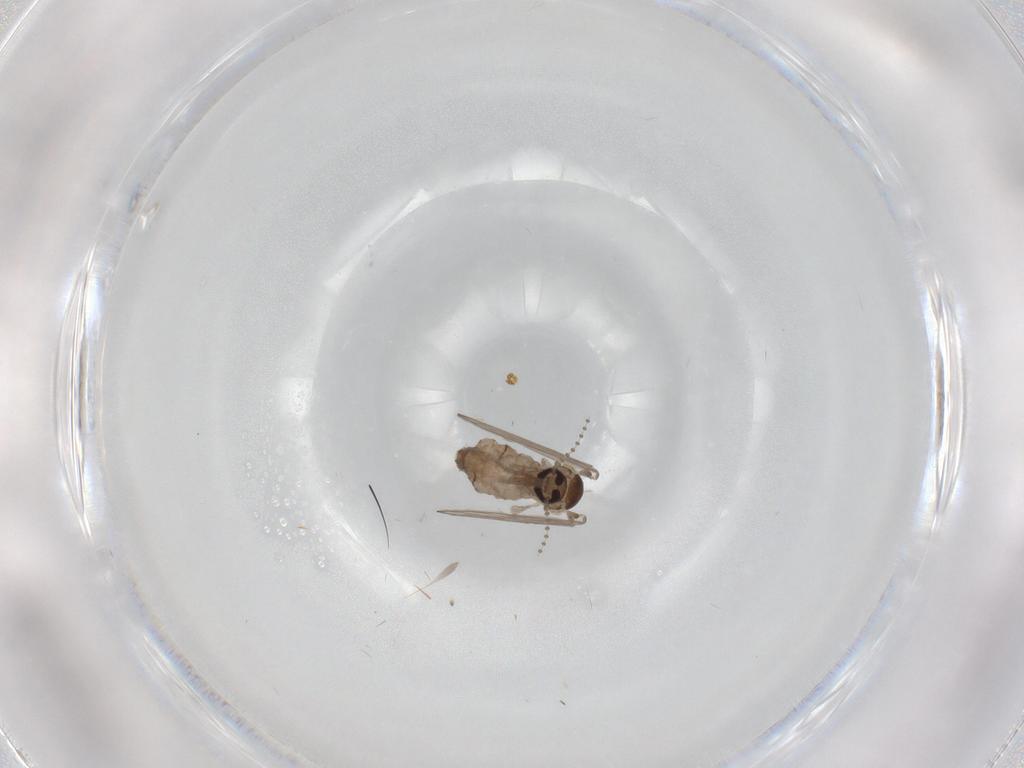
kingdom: Animalia
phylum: Arthropoda
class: Insecta
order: Diptera
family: Psychodidae
